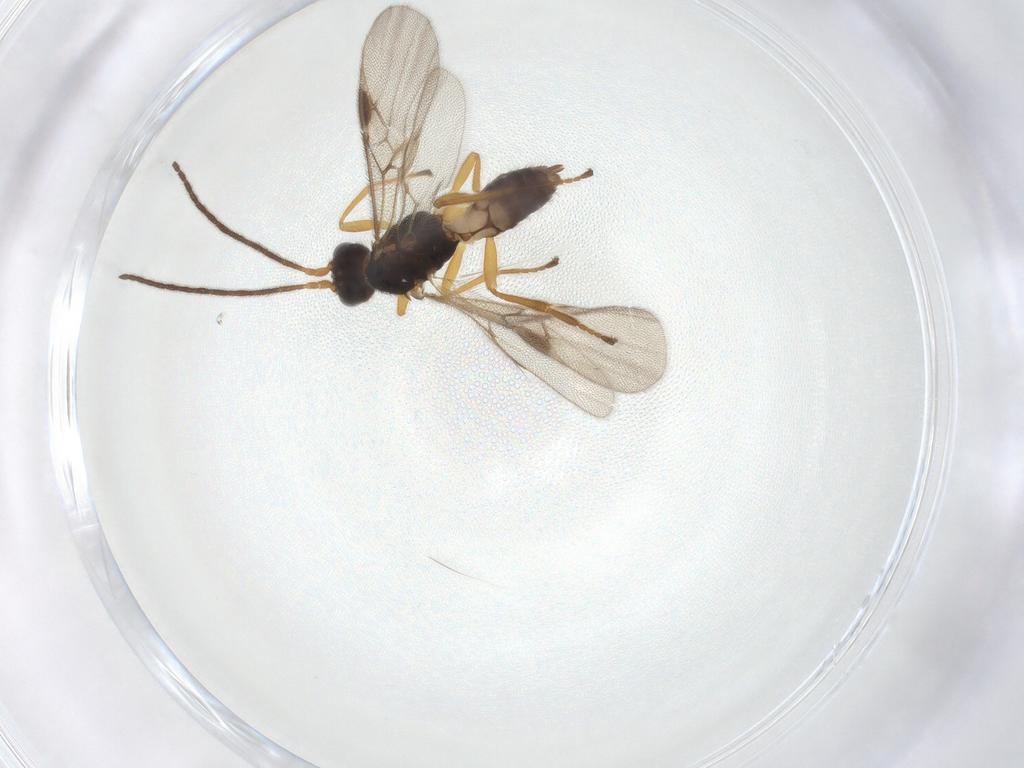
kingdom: Animalia
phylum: Arthropoda
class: Insecta
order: Hymenoptera
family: Braconidae
